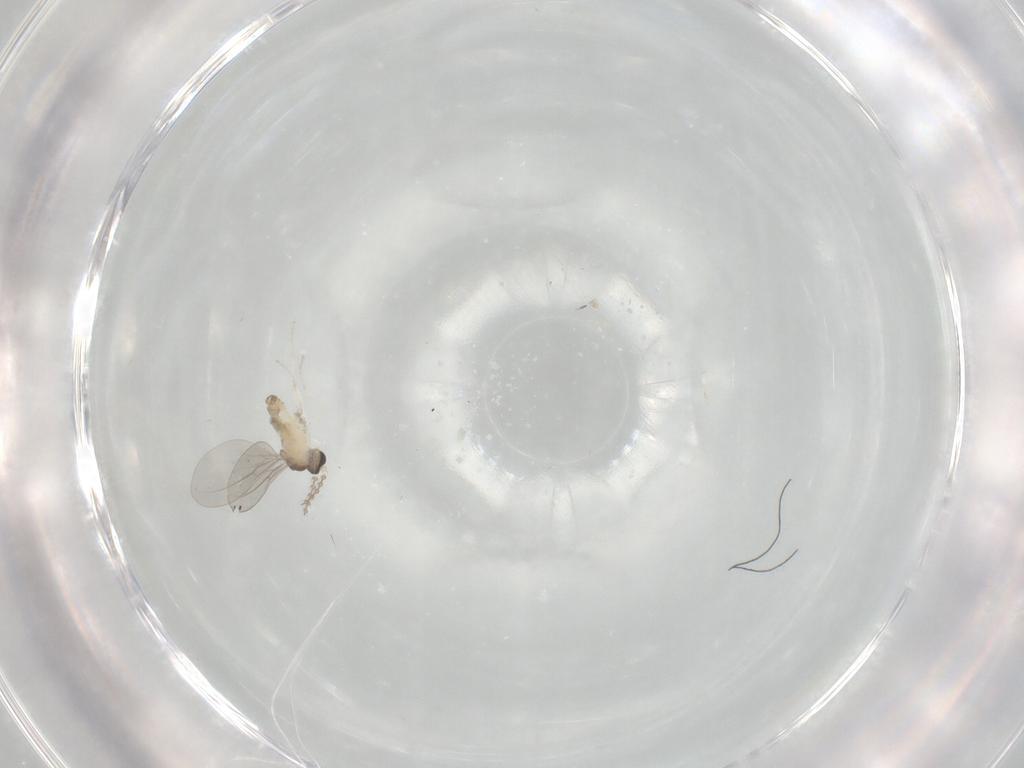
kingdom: Animalia
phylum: Arthropoda
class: Insecta
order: Diptera
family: Cecidomyiidae
